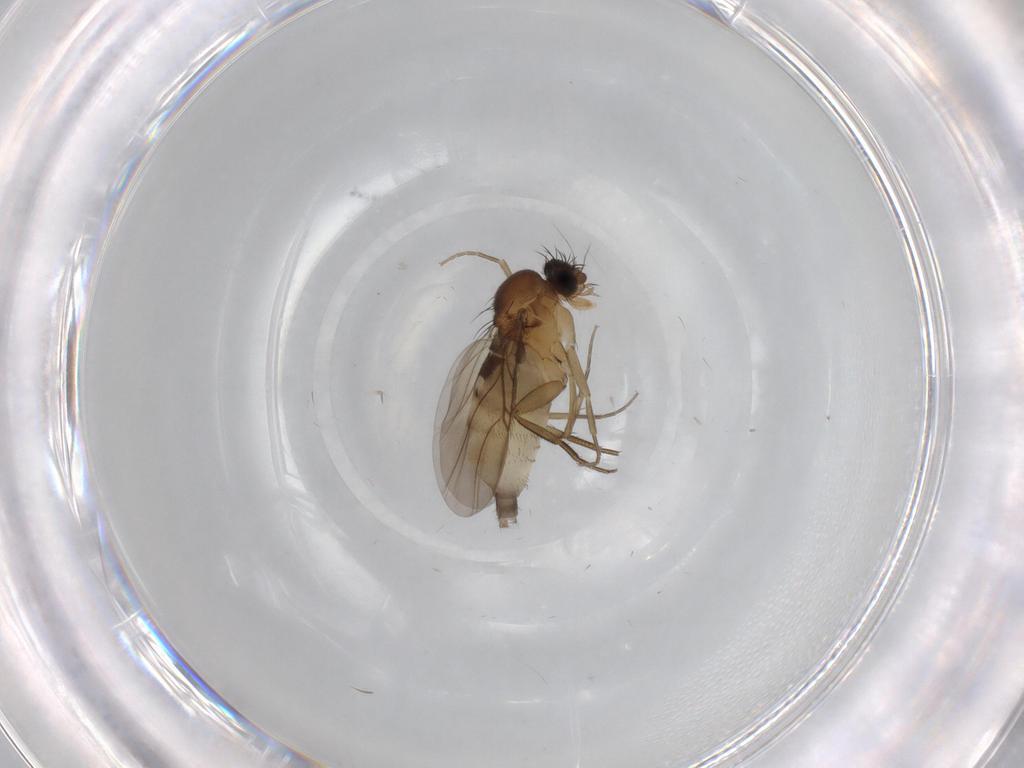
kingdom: Animalia
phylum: Arthropoda
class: Insecta
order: Diptera
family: Phoridae
